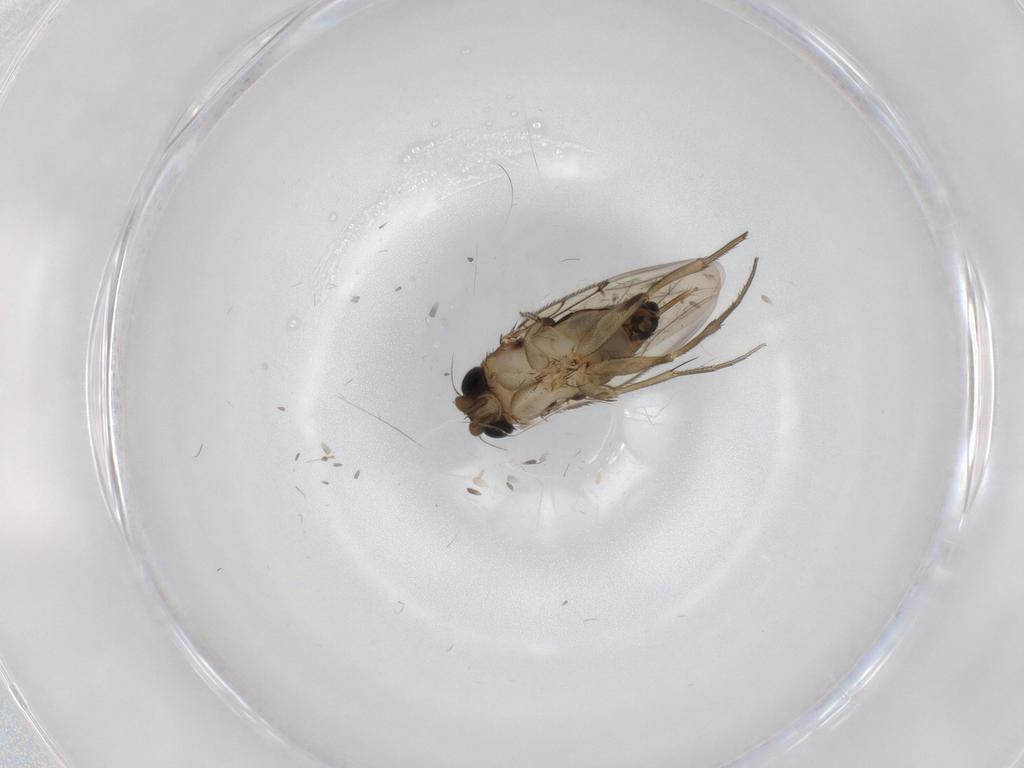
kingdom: Animalia
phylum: Arthropoda
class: Insecta
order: Diptera
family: Phoridae
